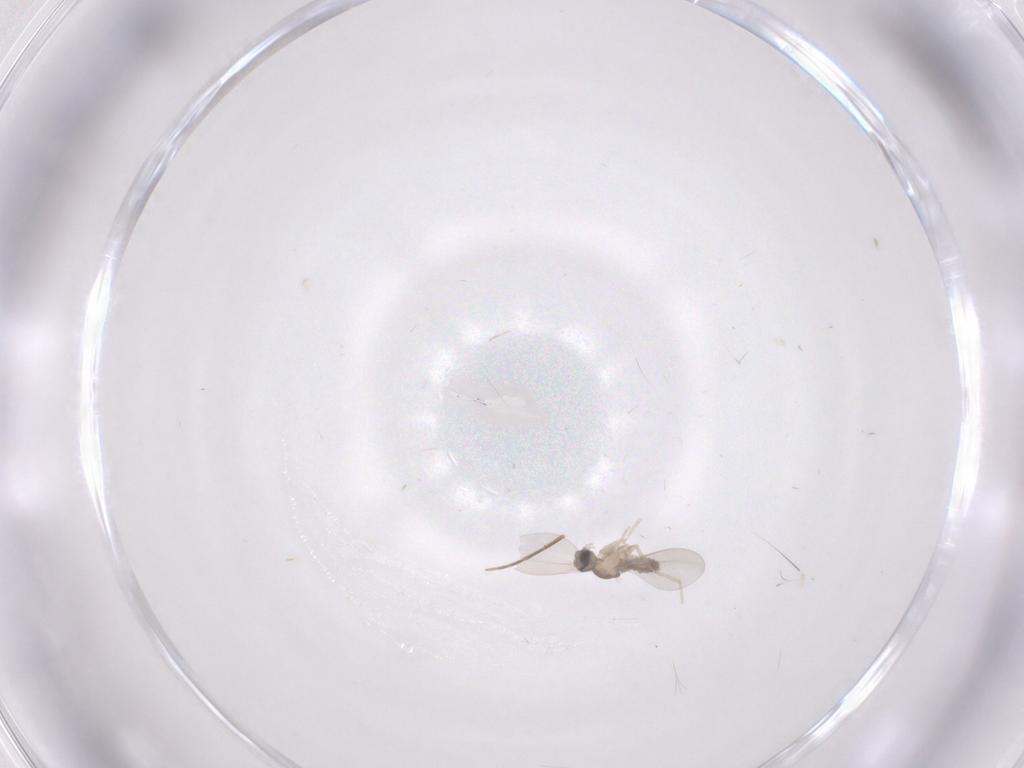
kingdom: Animalia
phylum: Arthropoda
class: Insecta
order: Diptera
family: Cecidomyiidae
